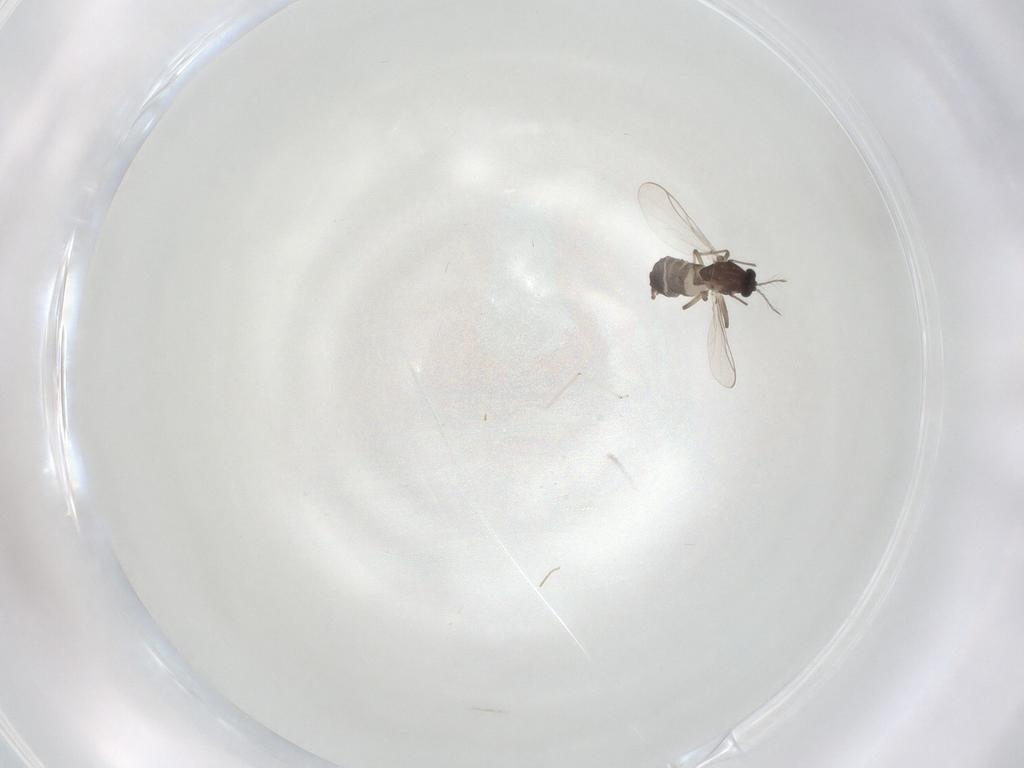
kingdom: Animalia
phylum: Arthropoda
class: Insecta
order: Diptera
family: Chironomidae
